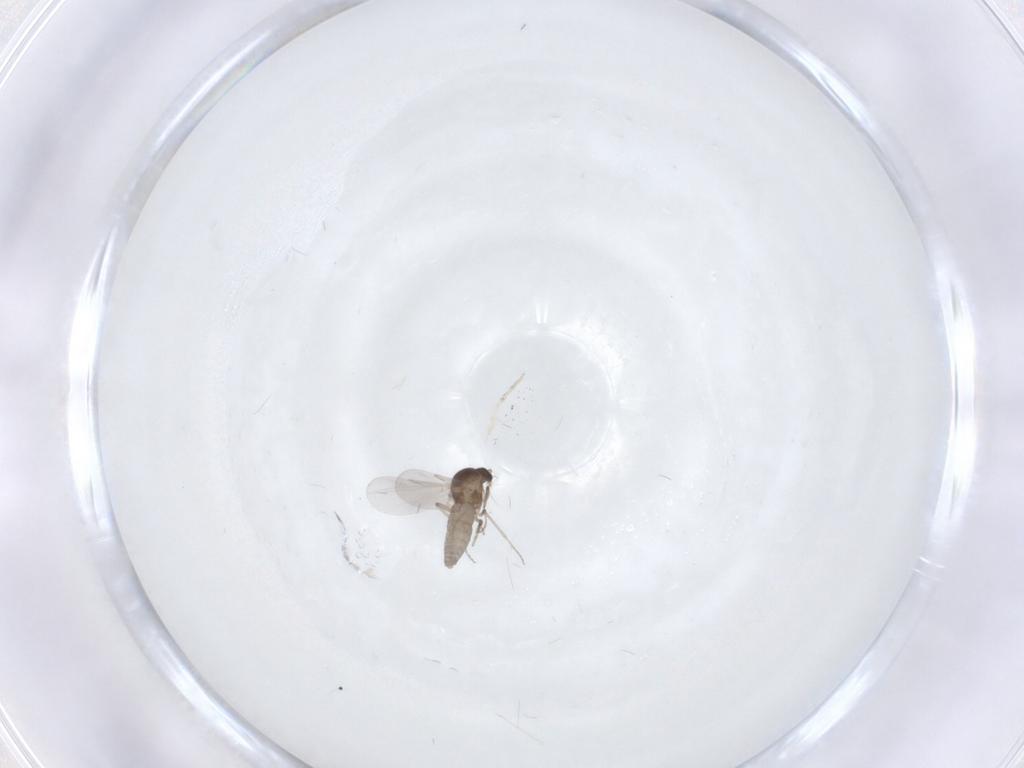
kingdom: Animalia
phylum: Arthropoda
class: Insecta
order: Diptera
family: Ceratopogonidae
